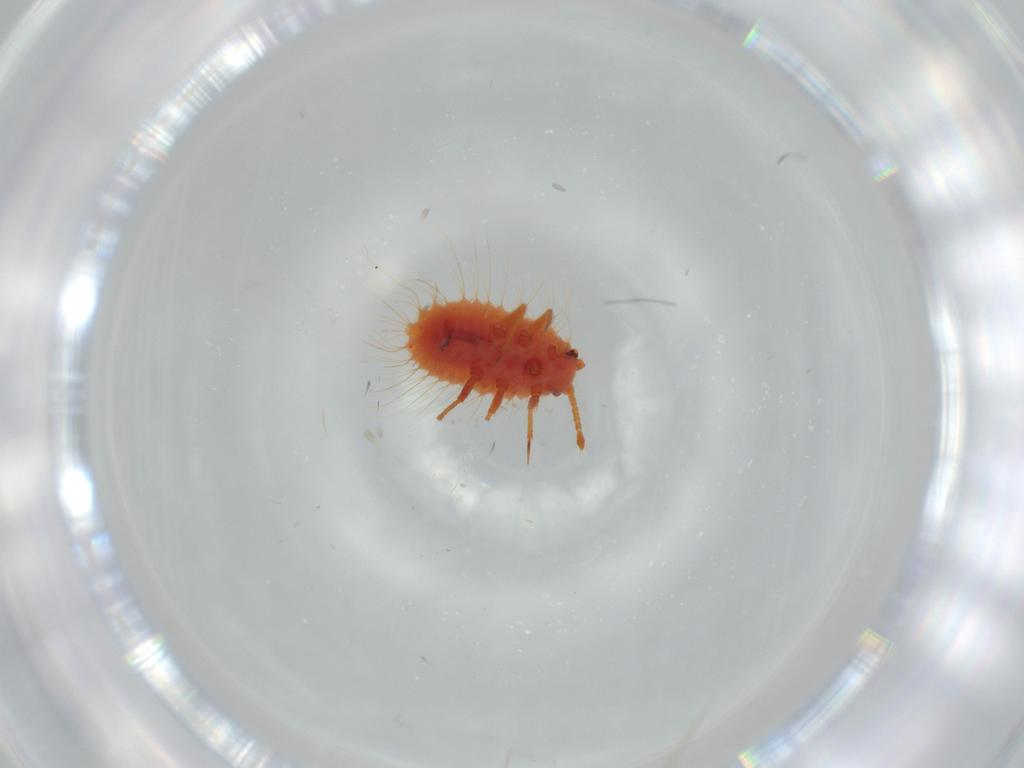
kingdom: Animalia
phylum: Arthropoda
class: Insecta
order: Hemiptera
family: Coccoidea_incertae_sedis
